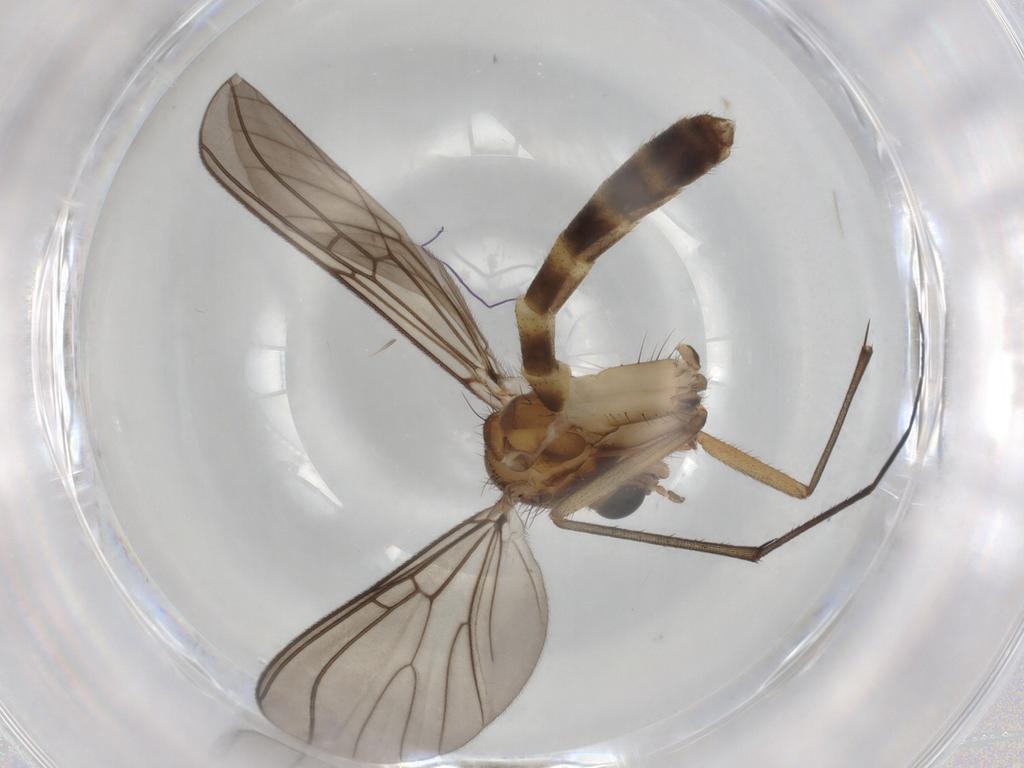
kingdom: Animalia
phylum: Arthropoda
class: Insecta
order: Diptera
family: Mycetophilidae
